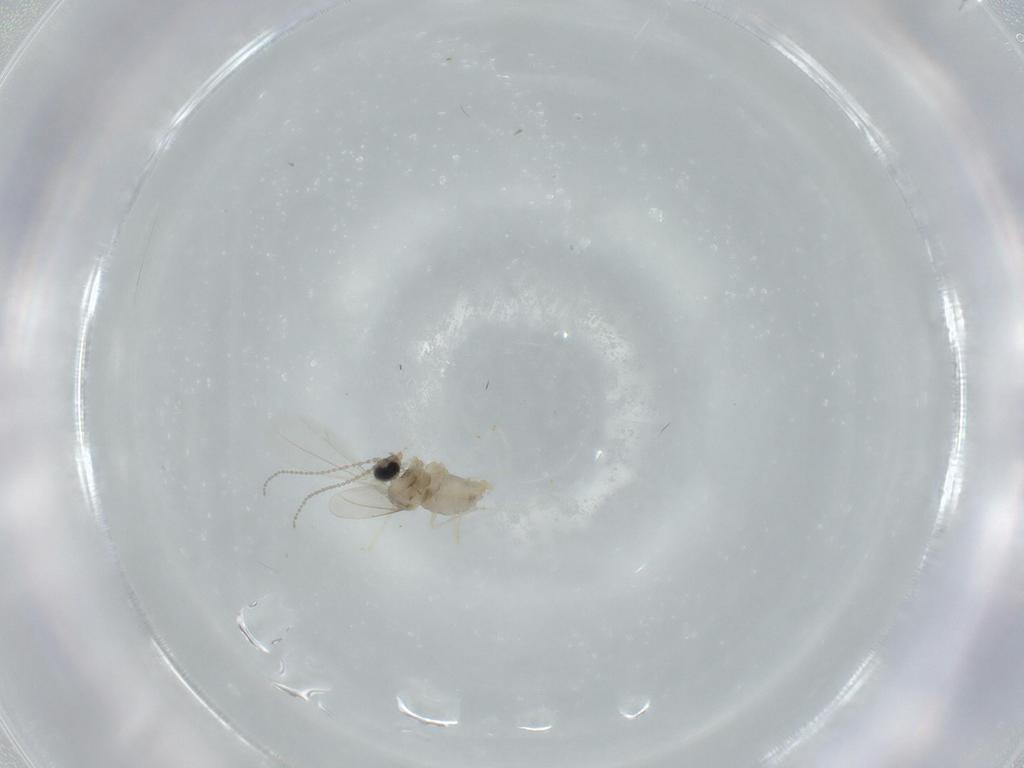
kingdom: Animalia
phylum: Arthropoda
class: Insecta
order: Diptera
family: Cecidomyiidae
